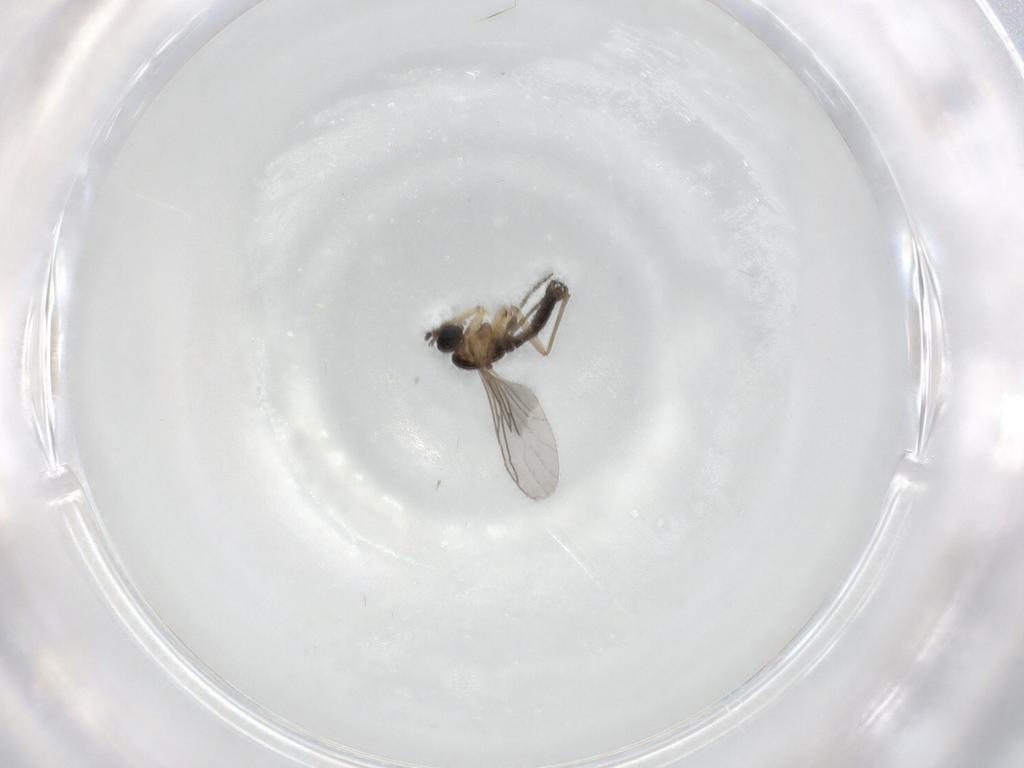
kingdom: Animalia
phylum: Arthropoda
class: Insecta
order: Diptera
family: Sciaridae
